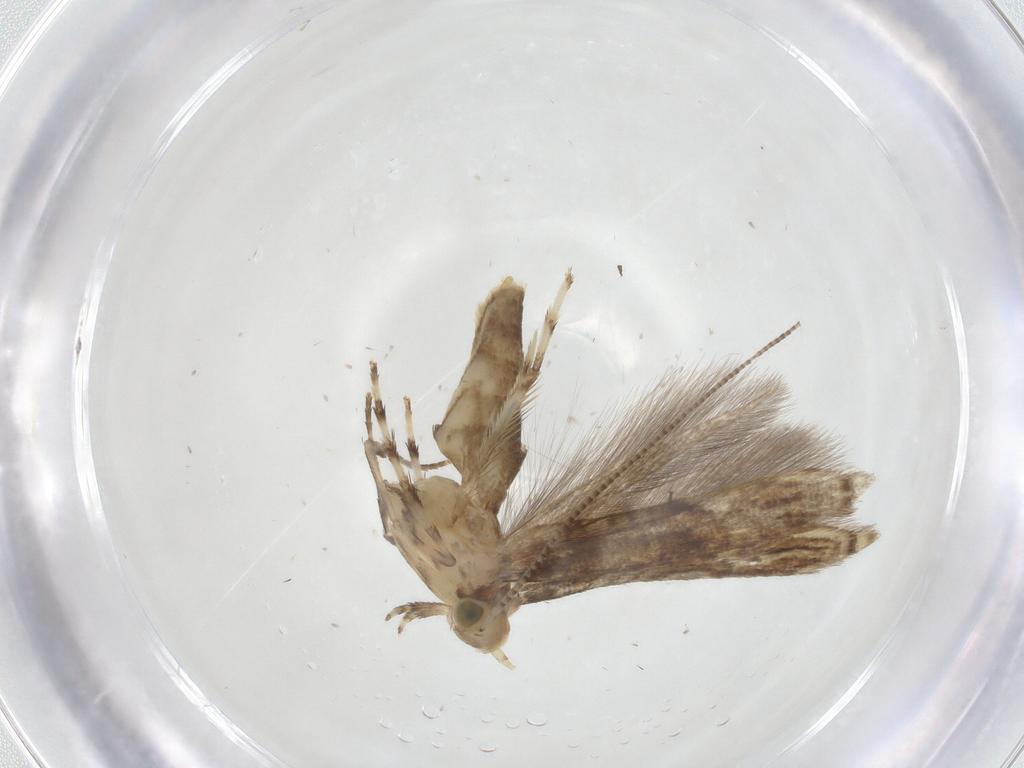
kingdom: Animalia
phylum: Arthropoda
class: Insecta
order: Lepidoptera
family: Gracillariidae
